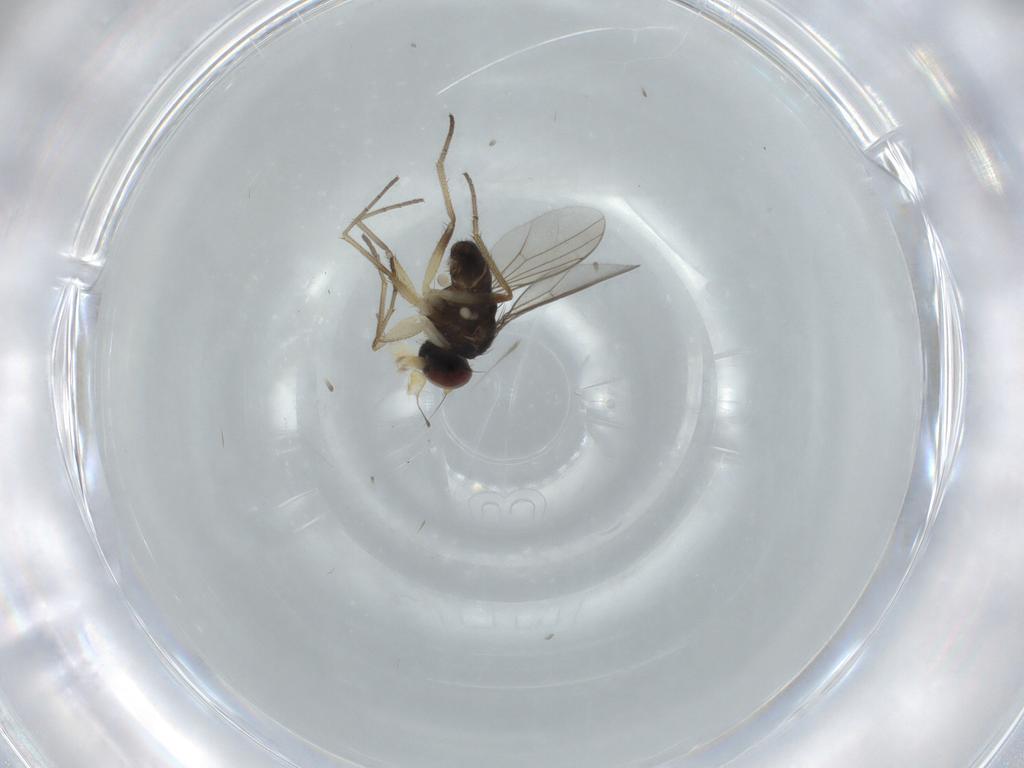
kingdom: Animalia
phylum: Arthropoda
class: Insecta
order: Diptera
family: Dolichopodidae
